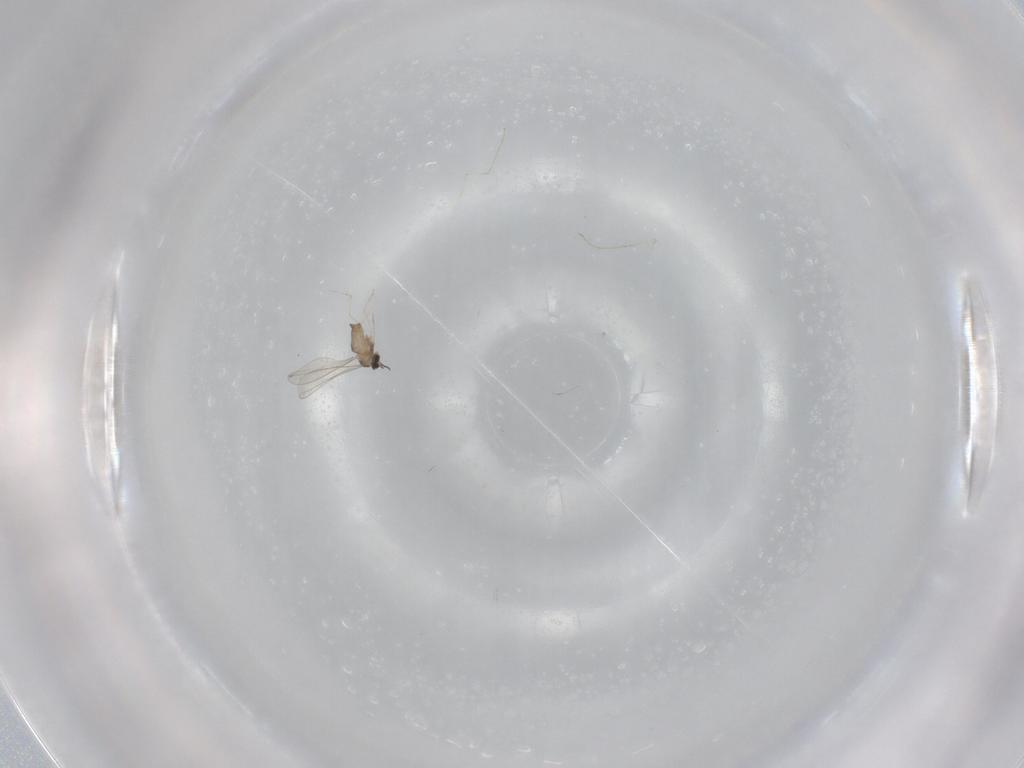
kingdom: Animalia
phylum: Arthropoda
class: Insecta
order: Diptera
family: Cecidomyiidae
